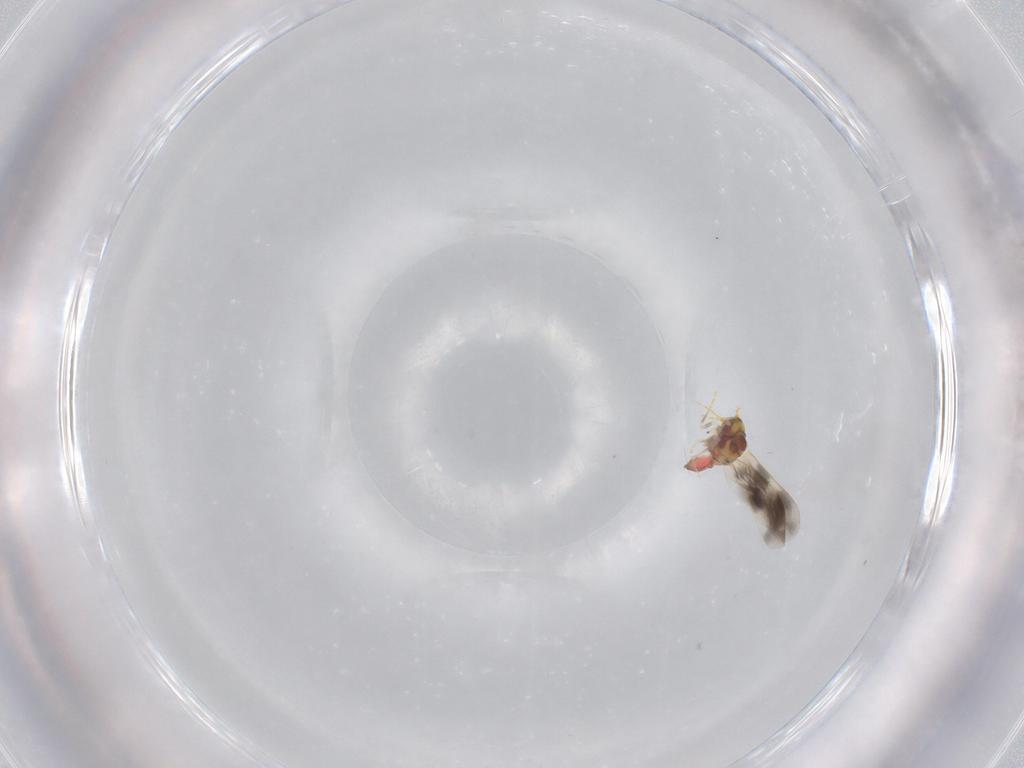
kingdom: Animalia
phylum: Arthropoda
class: Insecta
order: Hemiptera
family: Aleyrodidae
